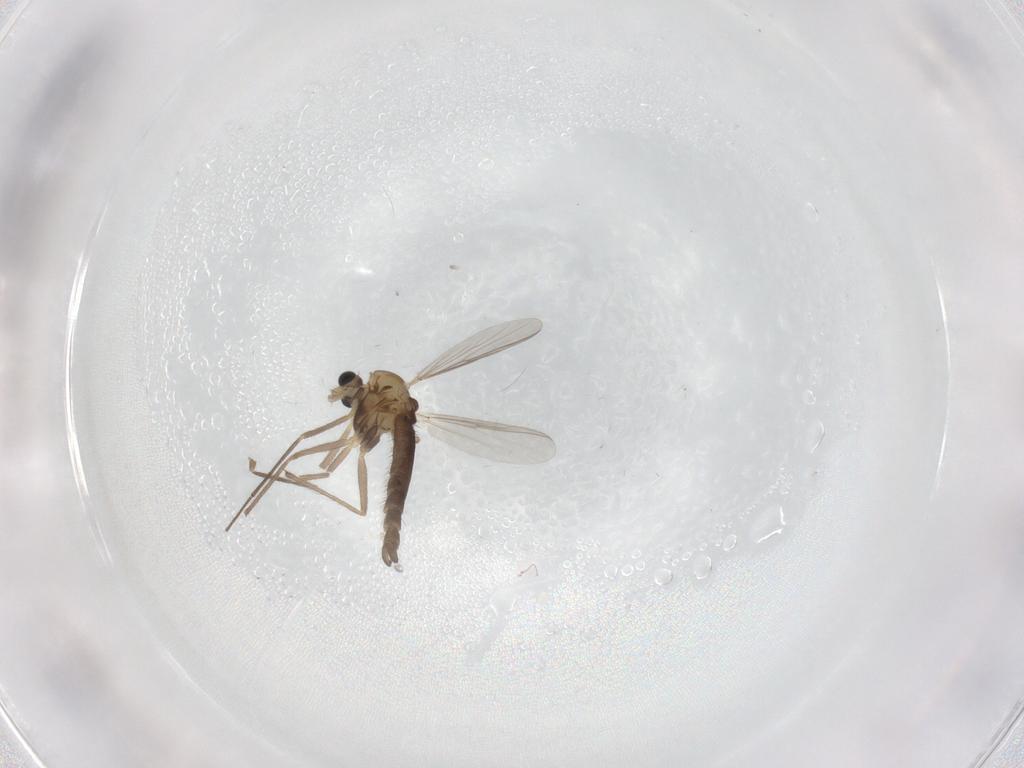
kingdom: Animalia
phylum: Arthropoda
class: Insecta
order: Diptera
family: Chironomidae
